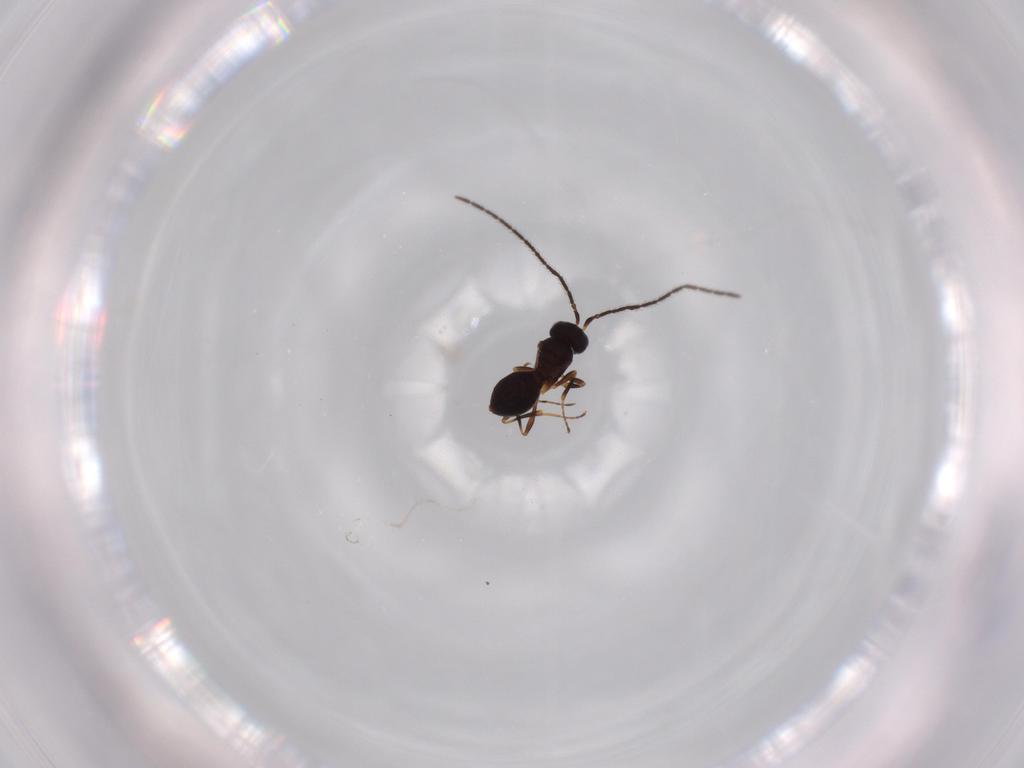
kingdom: Animalia
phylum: Arthropoda
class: Insecta
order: Hymenoptera
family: Scelionidae
